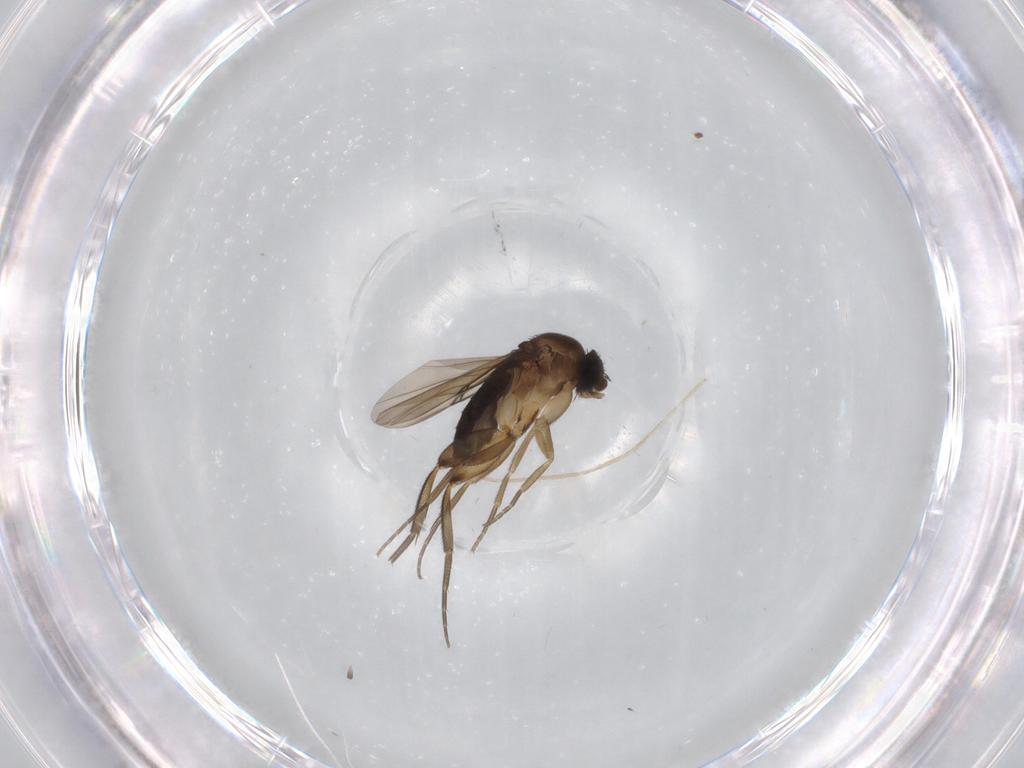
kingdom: Animalia
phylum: Arthropoda
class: Insecta
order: Diptera
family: Phoridae
